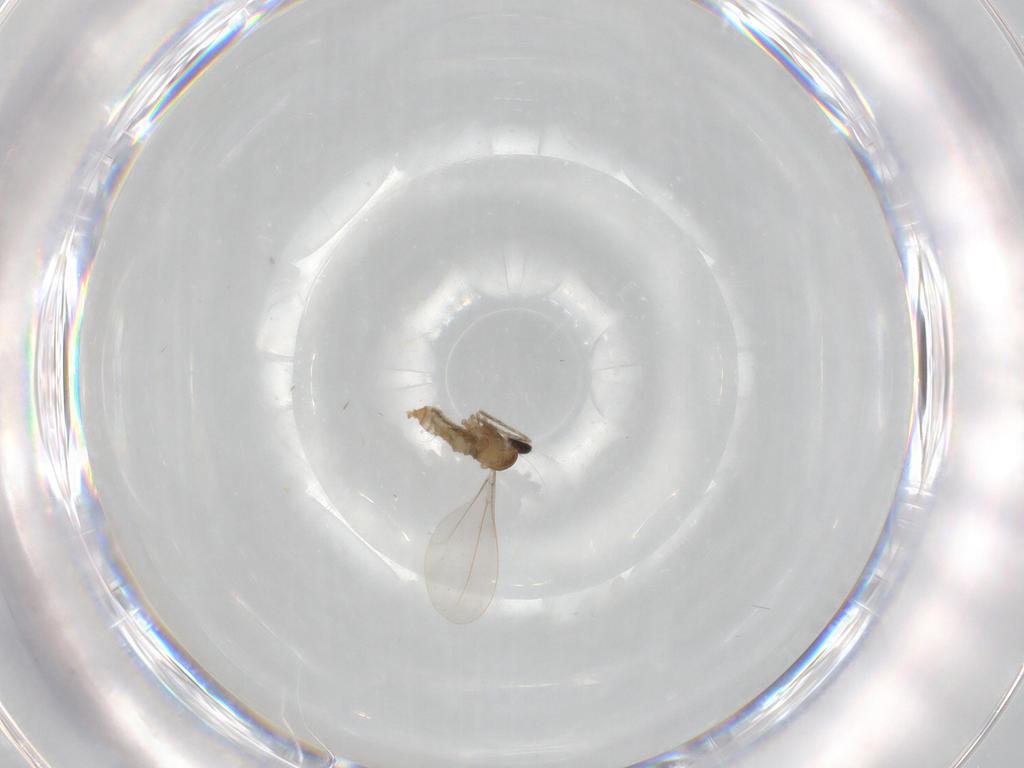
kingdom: Animalia
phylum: Arthropoda
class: Insecta
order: Diptera
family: Cecidomyiidae
